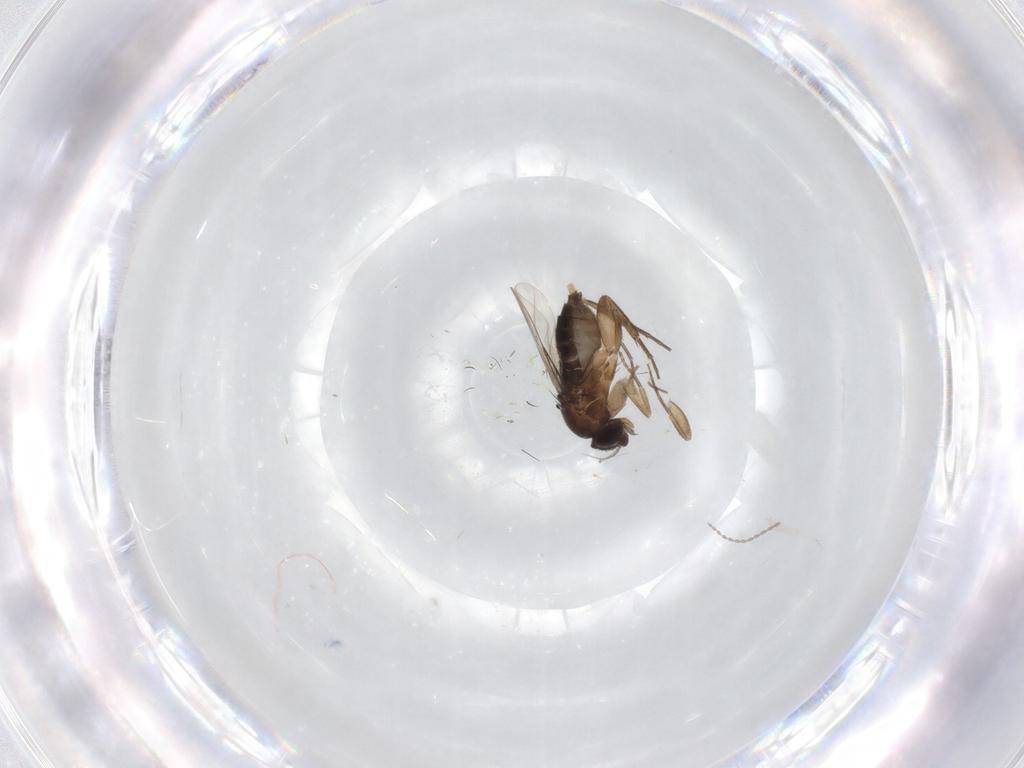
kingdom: Animalia
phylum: Arthropoda
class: Insecta
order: Diptera
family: Phoridae
